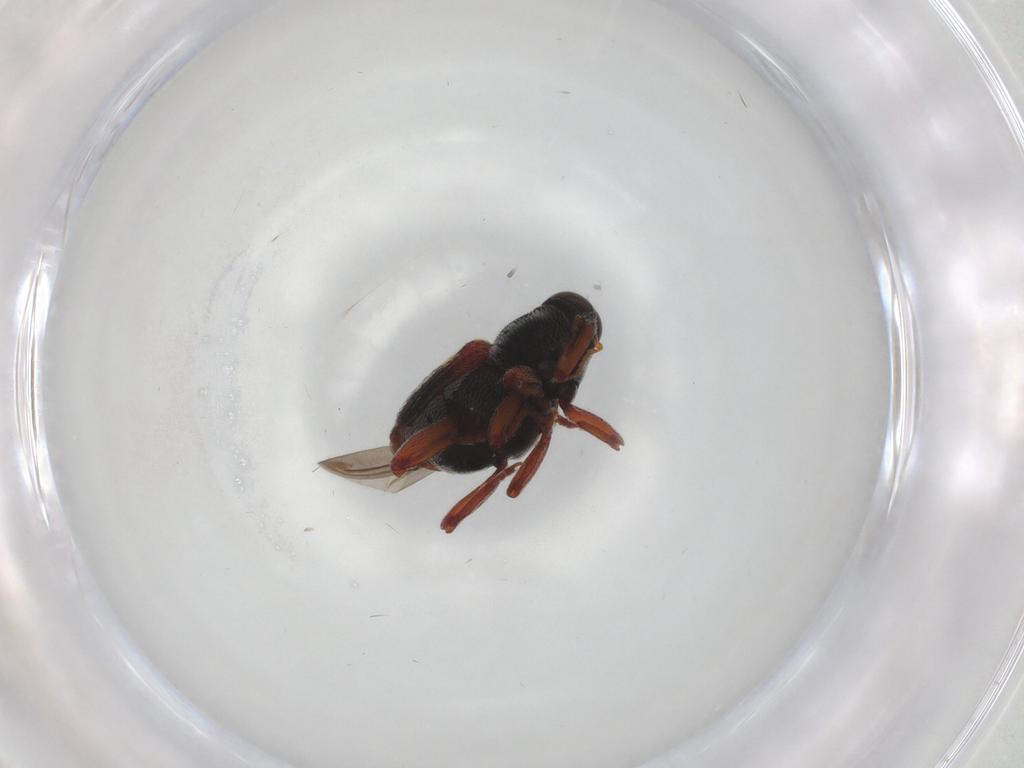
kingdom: Animalia
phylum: Arthropoda
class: Insecta
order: Coleoptera
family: Curculionidae
